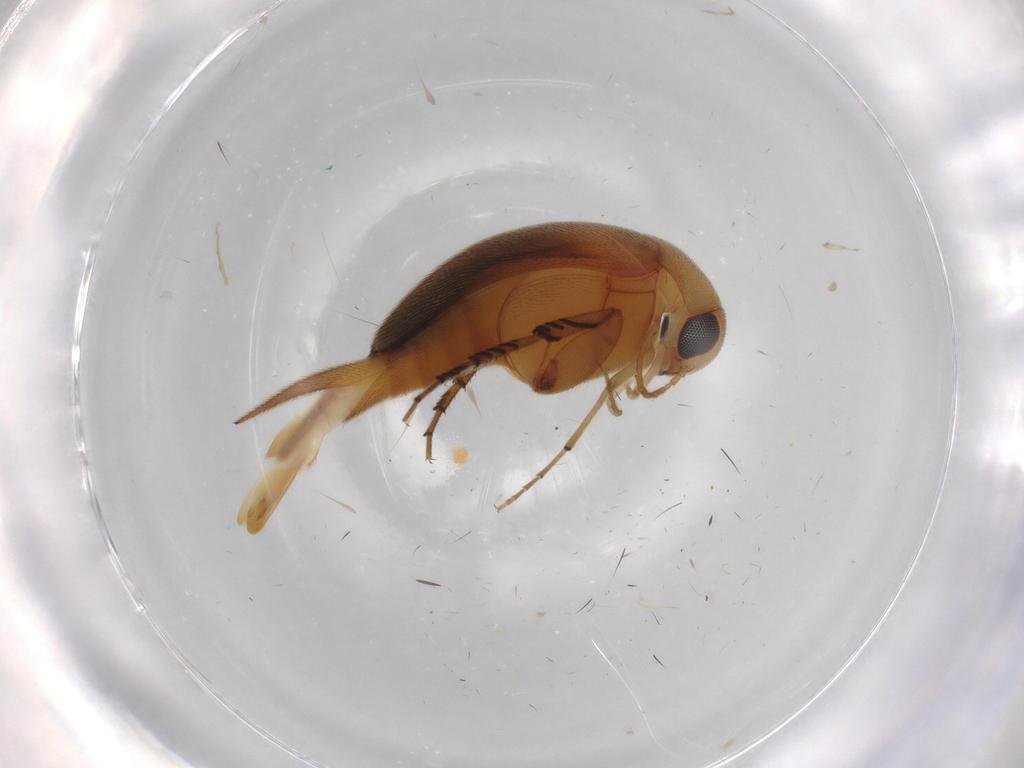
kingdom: Animalia
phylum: Arthropoda
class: Insecta
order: Coleoptera
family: Mordellidae
